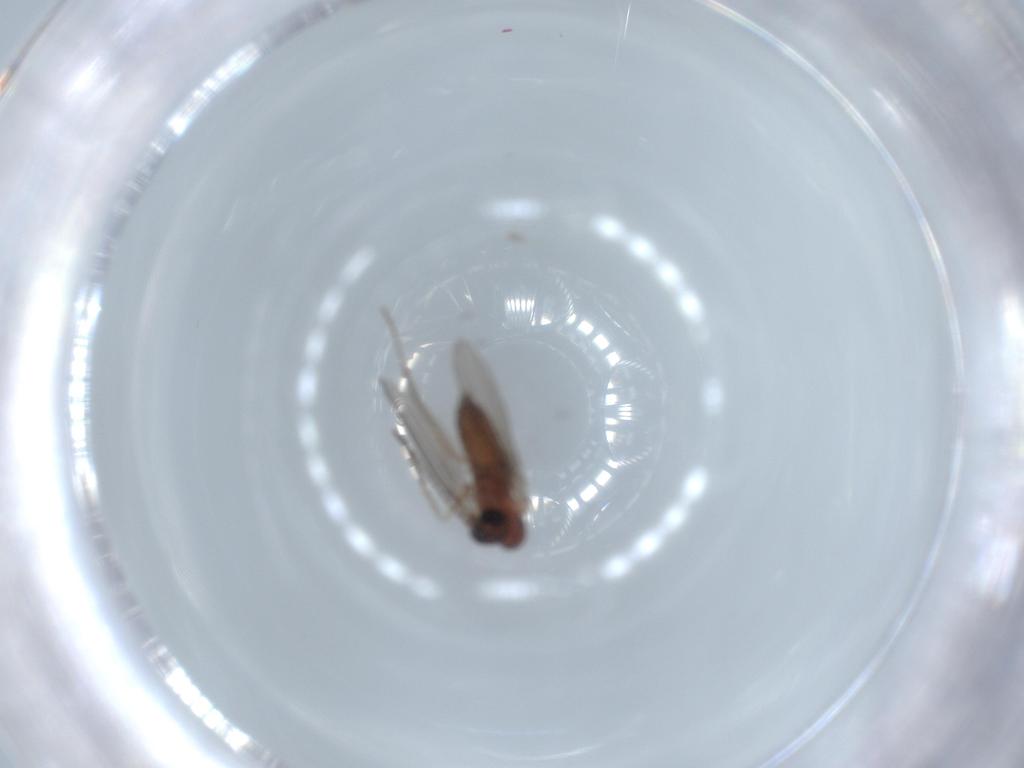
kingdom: Animalia
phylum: Arthropoda
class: Insecta
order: Diptera
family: Psychodidae
